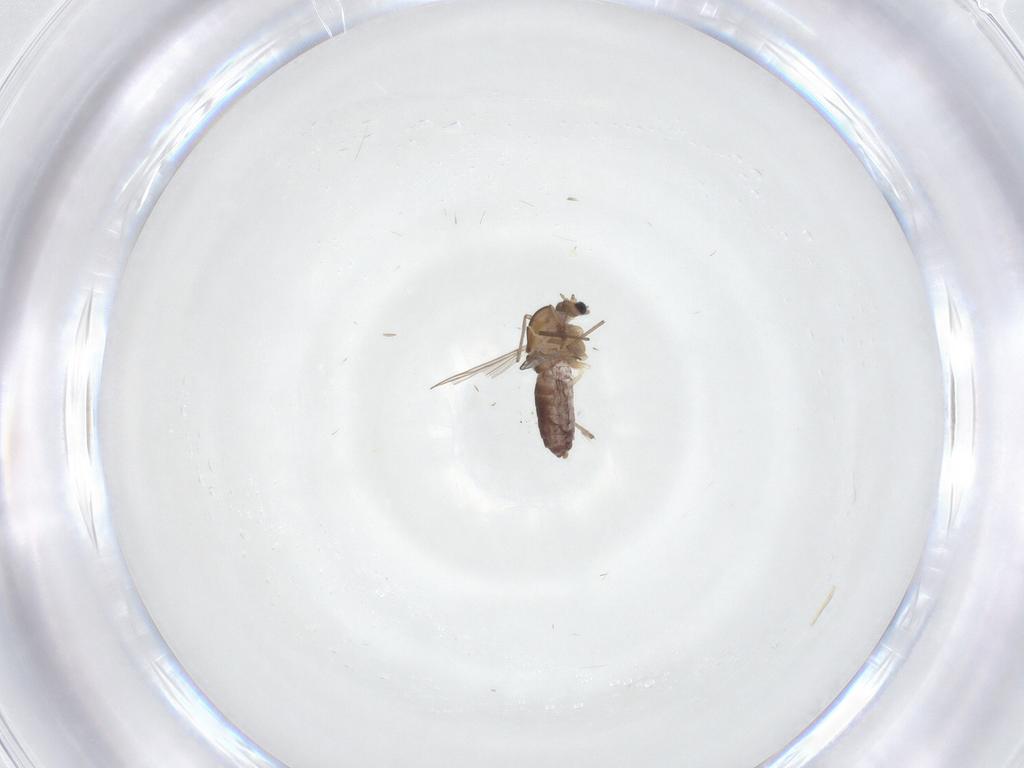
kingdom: Animalia
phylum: Arthropoda
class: Insecta
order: Diptera
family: Chironomidae
